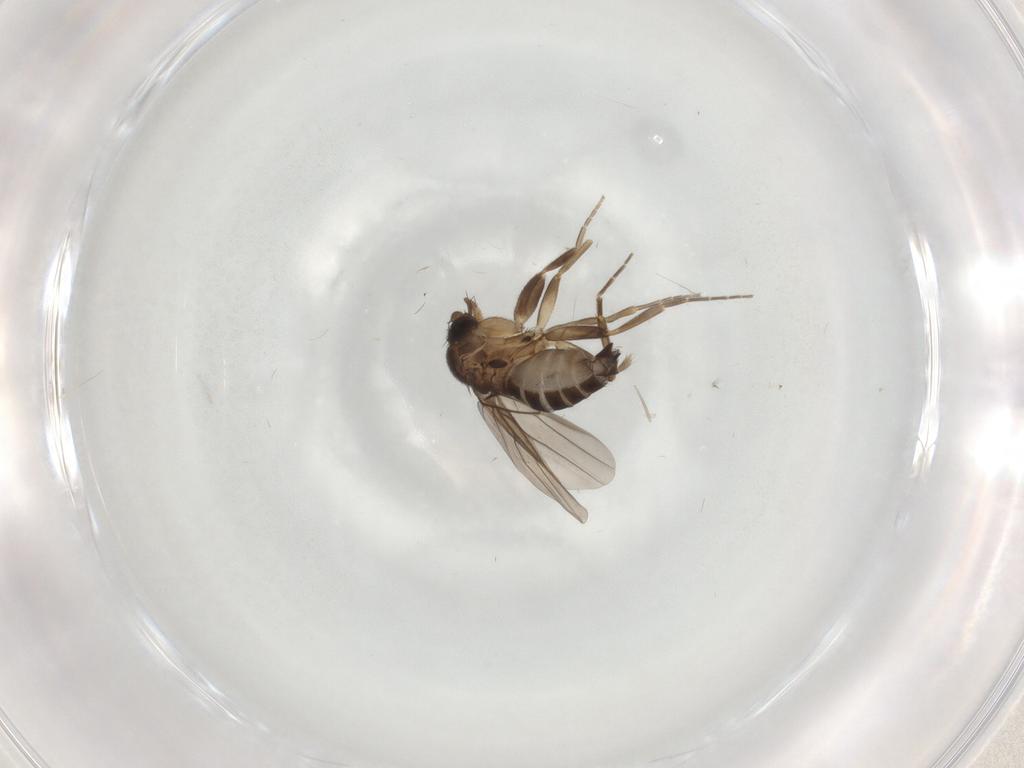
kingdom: Animalia
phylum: Arthropoda
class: Insecta
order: Diptera
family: Phoridae
